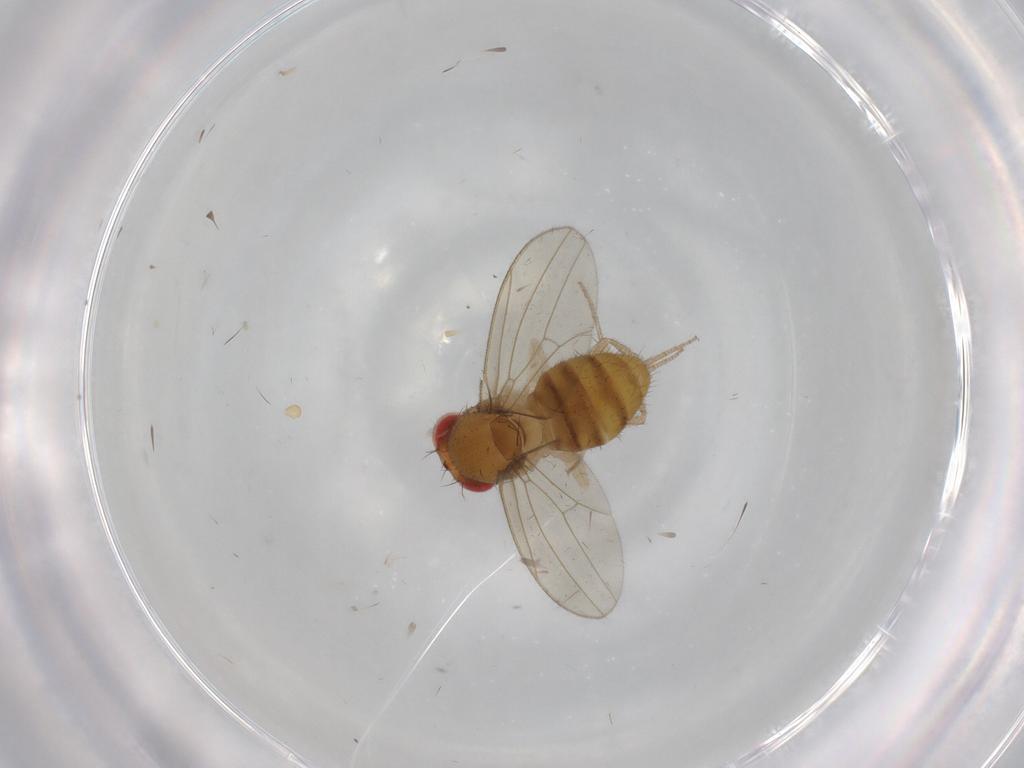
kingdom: Animalia
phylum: Arthropoda
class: Insecta
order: Diptera
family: Drosophilidae
